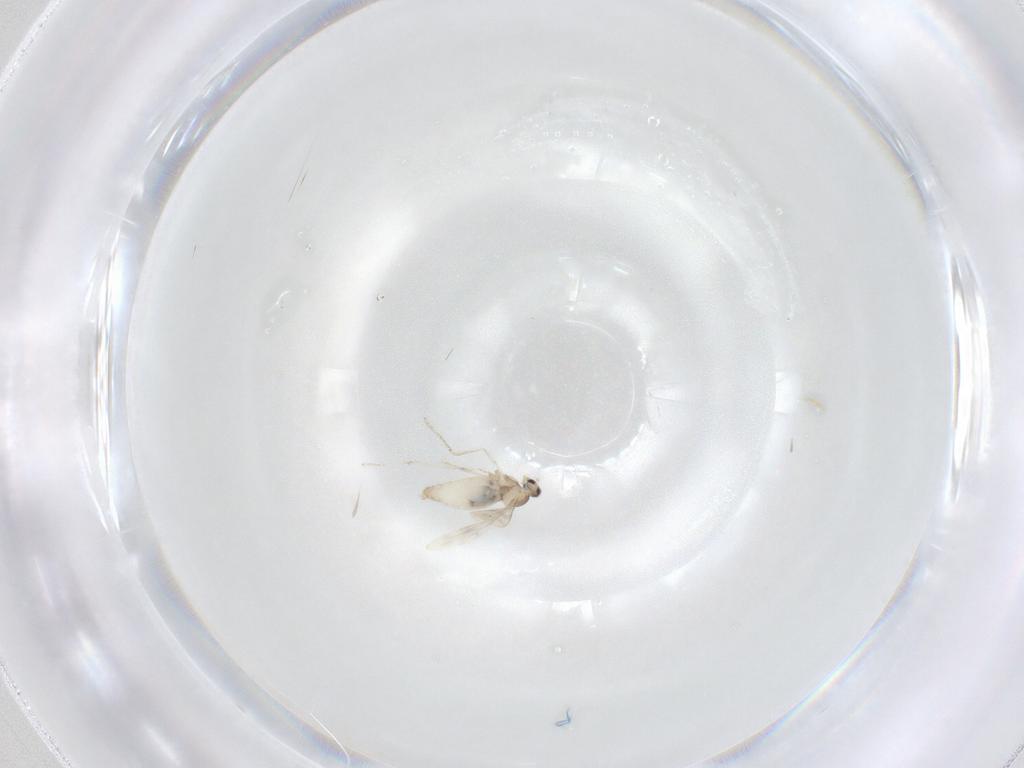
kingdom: Animalia
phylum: Arthropoda
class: Insecta
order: Diptera
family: Cecidomyiidae
